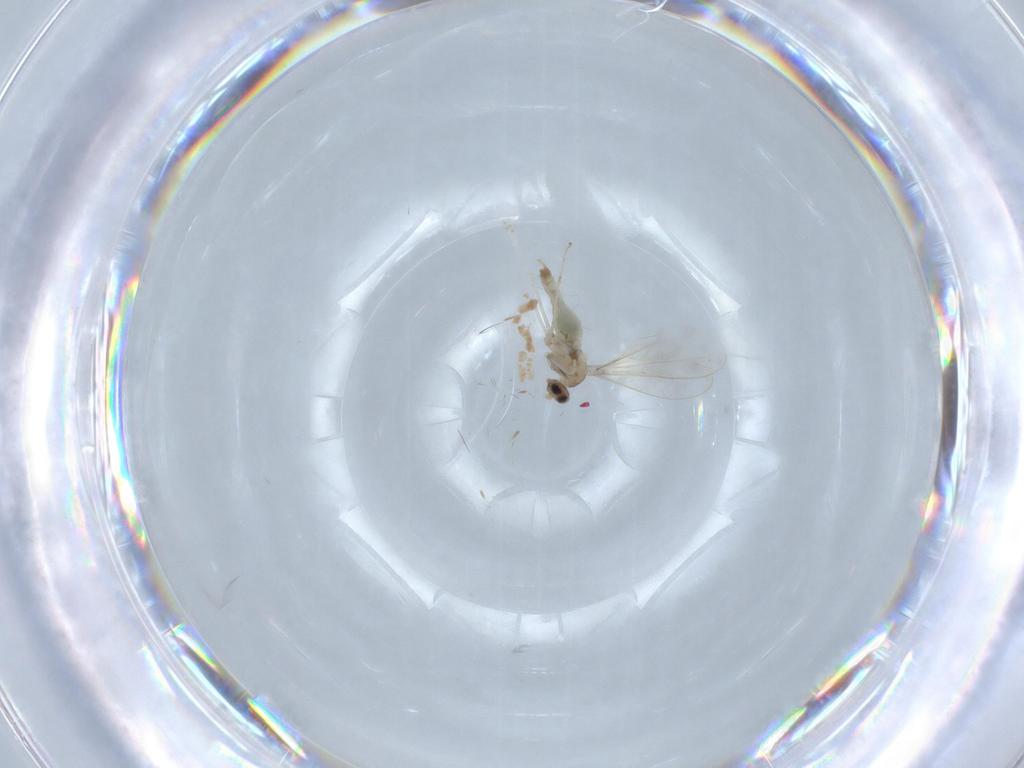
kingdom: Animalia
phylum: Arthropoda
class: Insecta
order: Diptera
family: Cecidomyiidae
